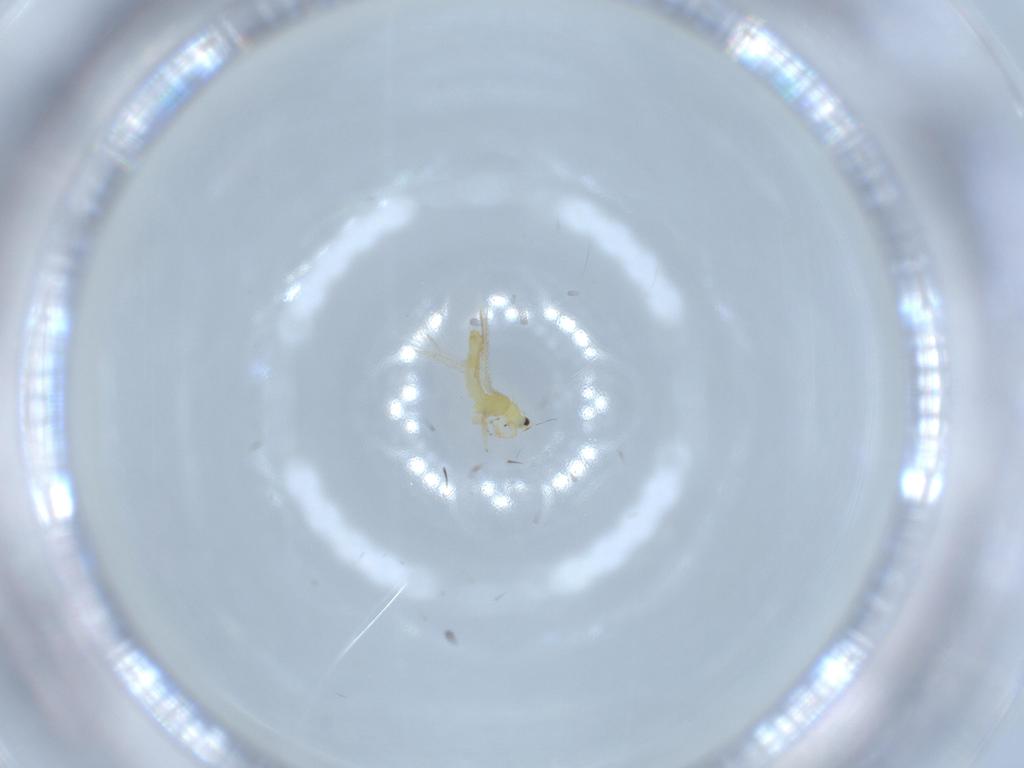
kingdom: Animalia
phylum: Arthropoda
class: Insecta
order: Thysanoptera
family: Thripidae
